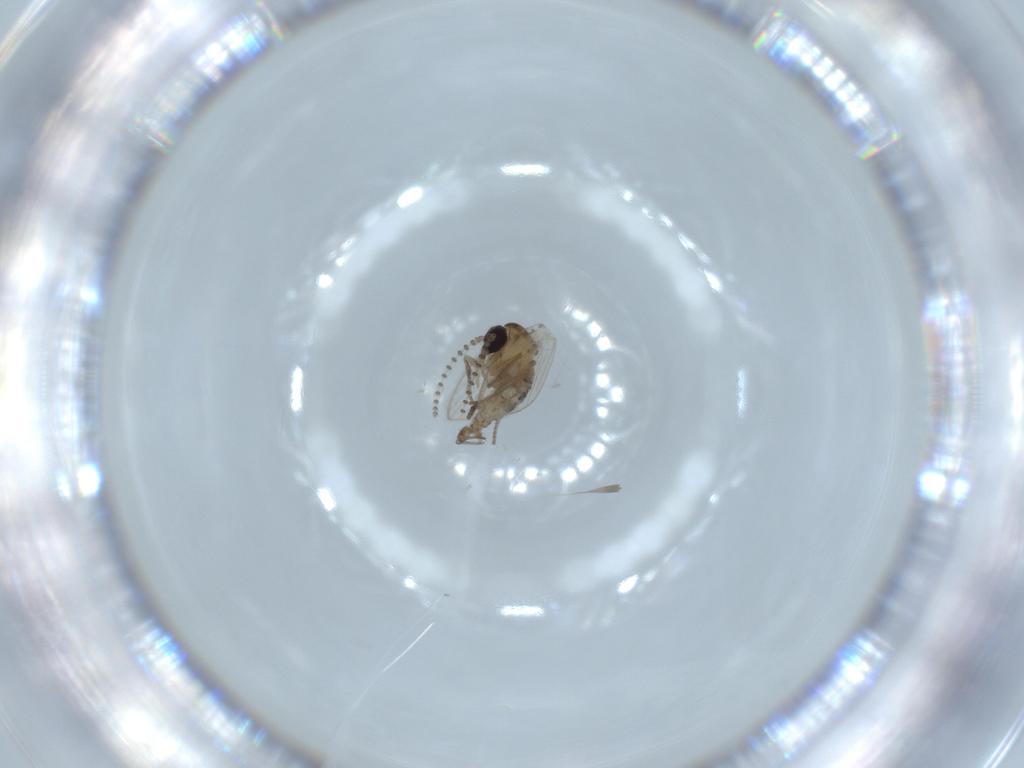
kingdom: Animalia
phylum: Arthropoda
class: Insecta
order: Diptera
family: Psychodidae
